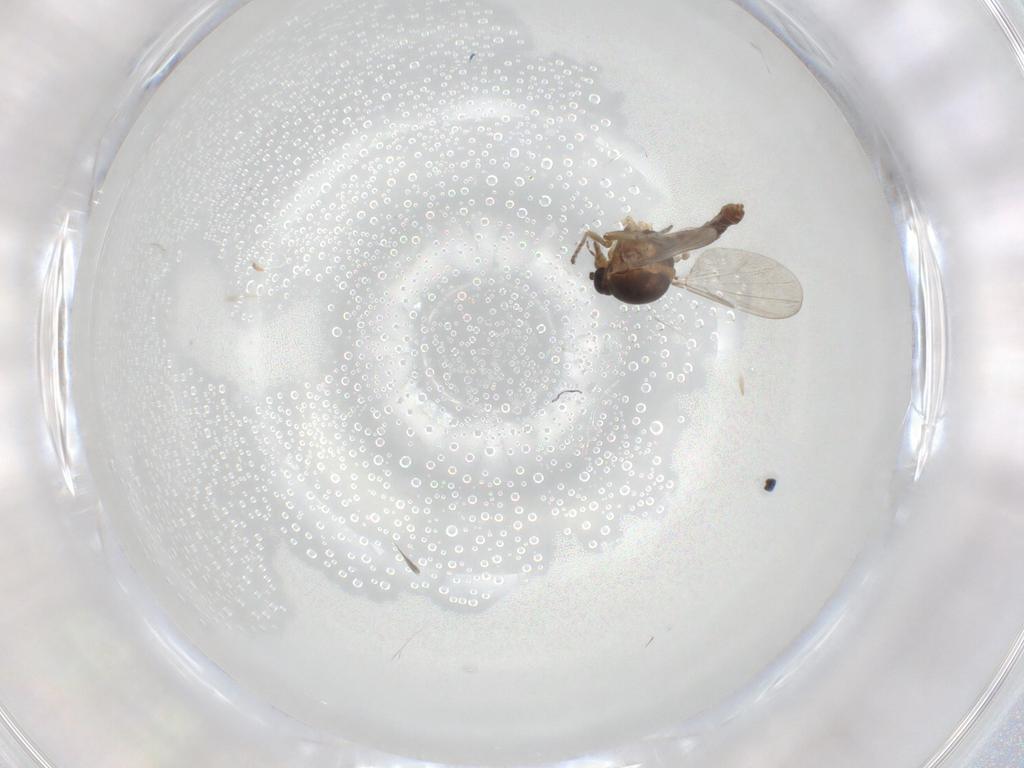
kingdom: Animalia
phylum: Arthropoda
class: Insecta
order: Diptera
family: Ceratopogonidae
